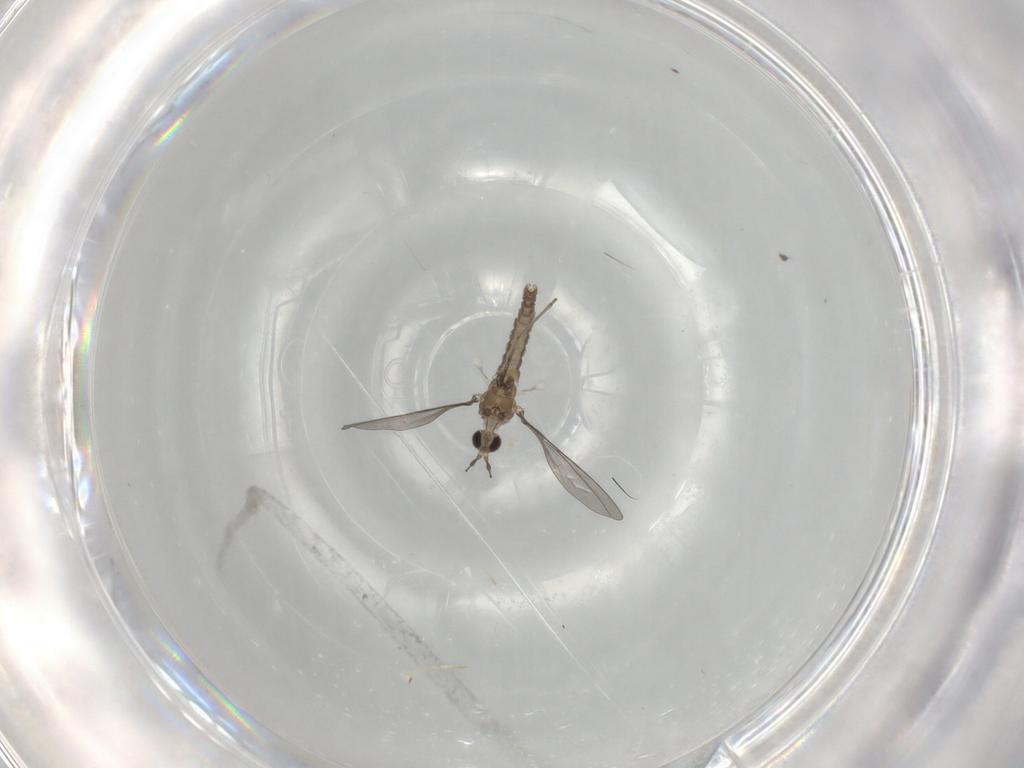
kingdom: Animalia
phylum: Arthropoda
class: Insecta
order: Diptera
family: Cecidomyiidae
